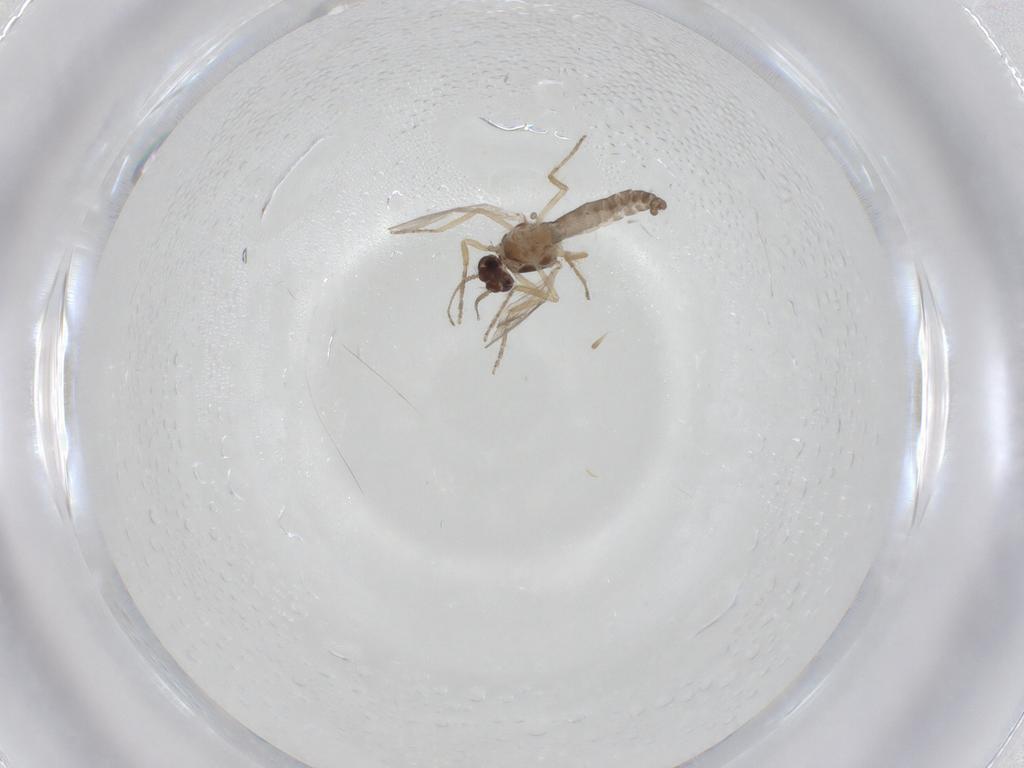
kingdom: Animalia
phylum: Arthropoda
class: Insecta
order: Diptera
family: Ceratopogonidae
